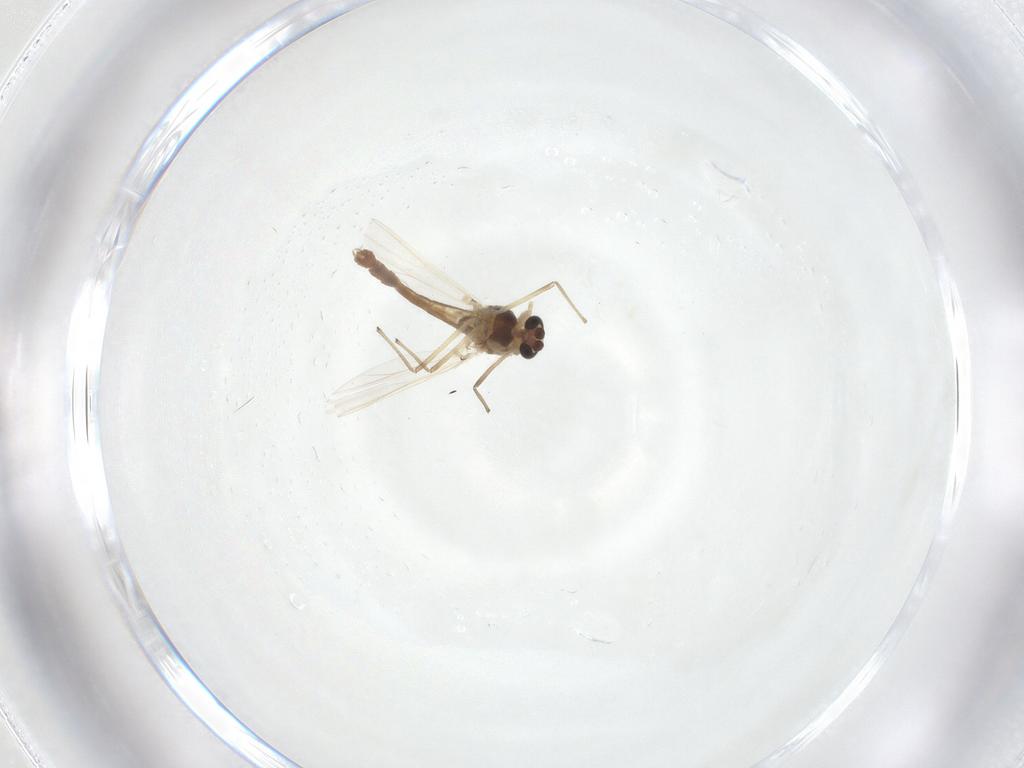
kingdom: Animalia
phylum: Arthropoda
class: Insecta
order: Diptera
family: Chironomidae
